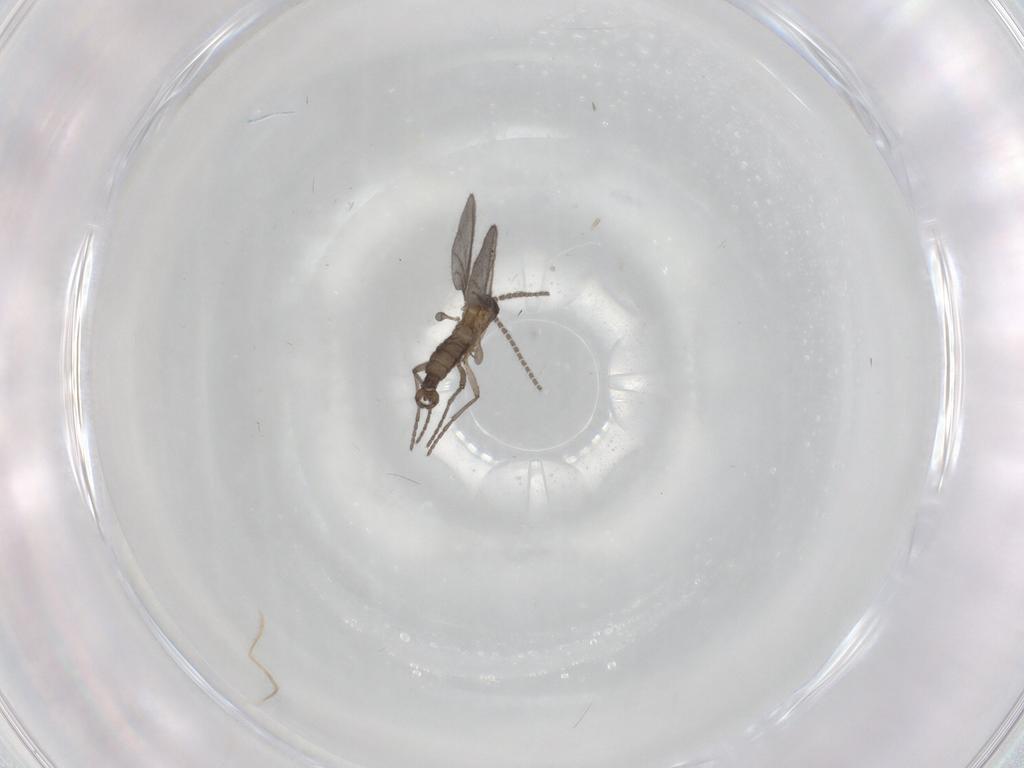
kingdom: Animalia
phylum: Arthropoda
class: Insecta
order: Diptera
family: Sciaridae
